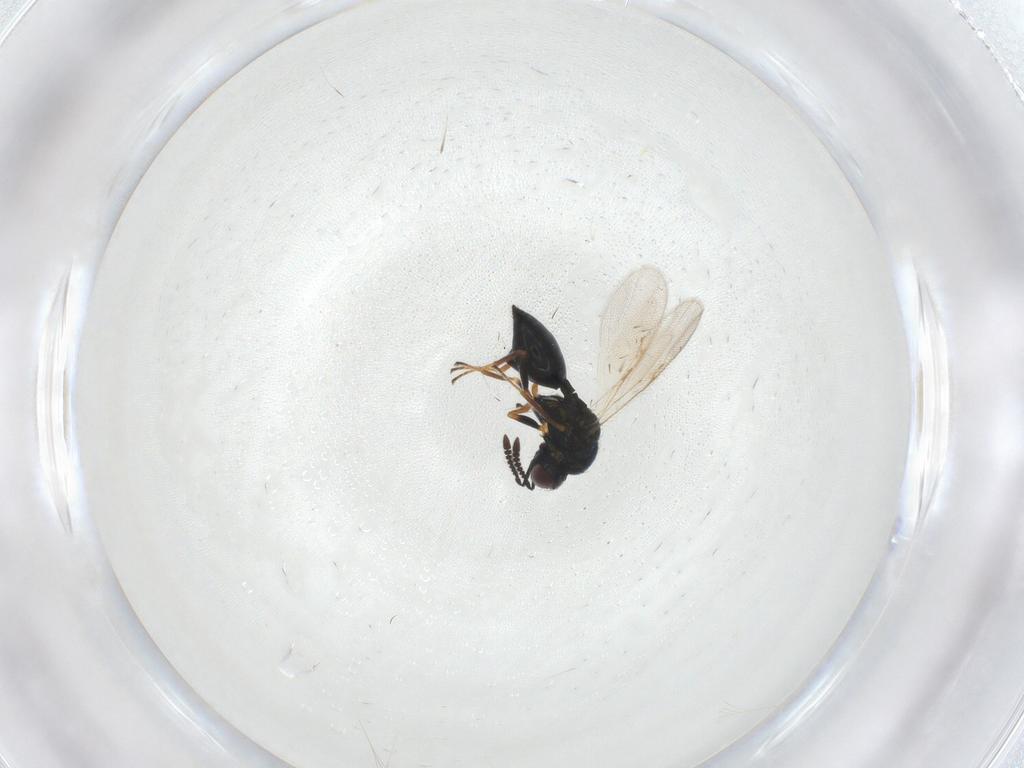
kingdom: Animalia
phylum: Arthropoda
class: Insecta
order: Hymenoptera
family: Chalcidoidea_incertae_sedis
